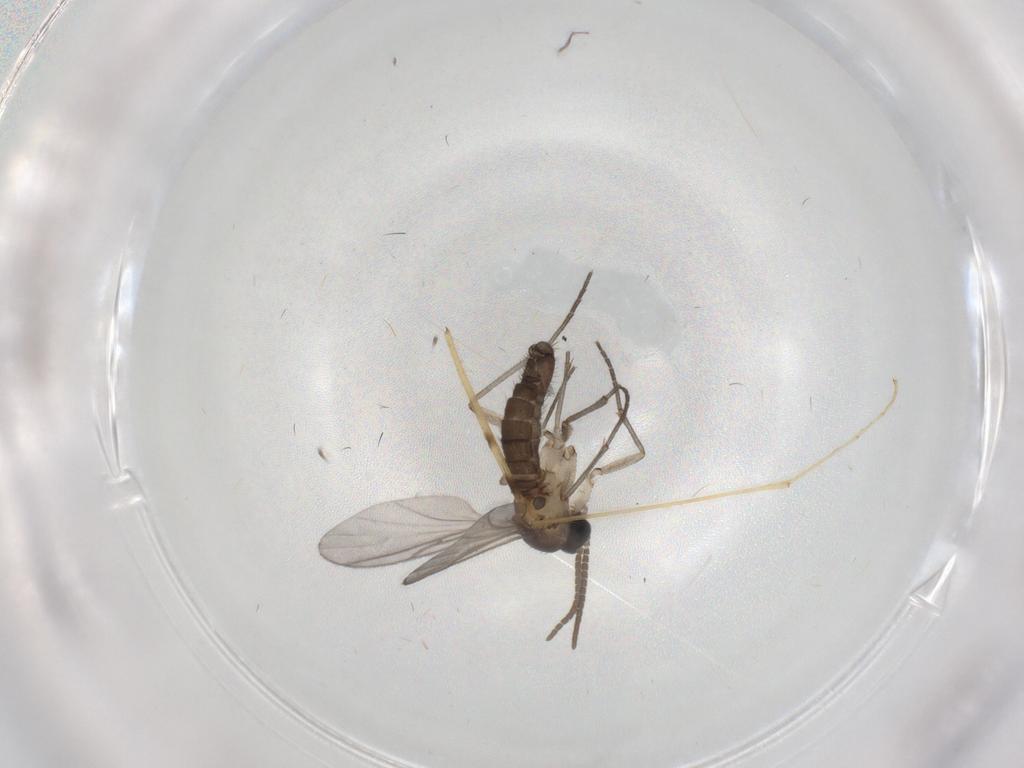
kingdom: Animalia
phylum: Arthropoda
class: Insecta
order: Diptera
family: Sciaridae
